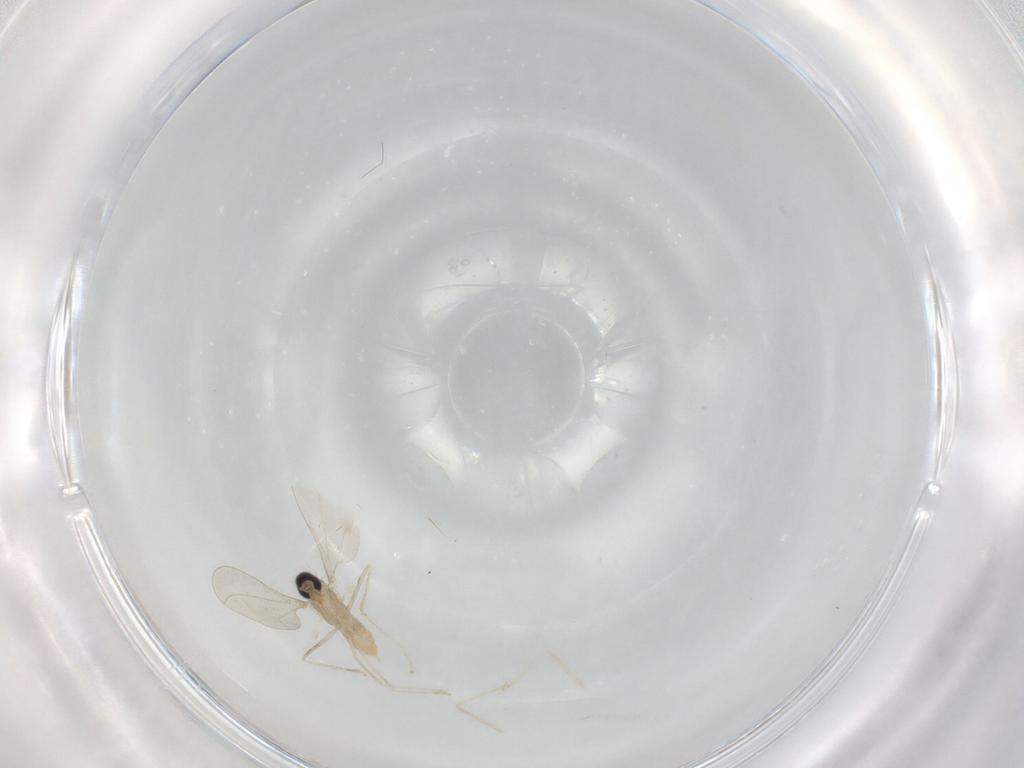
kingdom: Animalia
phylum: Arthropoda
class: Insecta
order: Diptera
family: Cecidomyiidae
